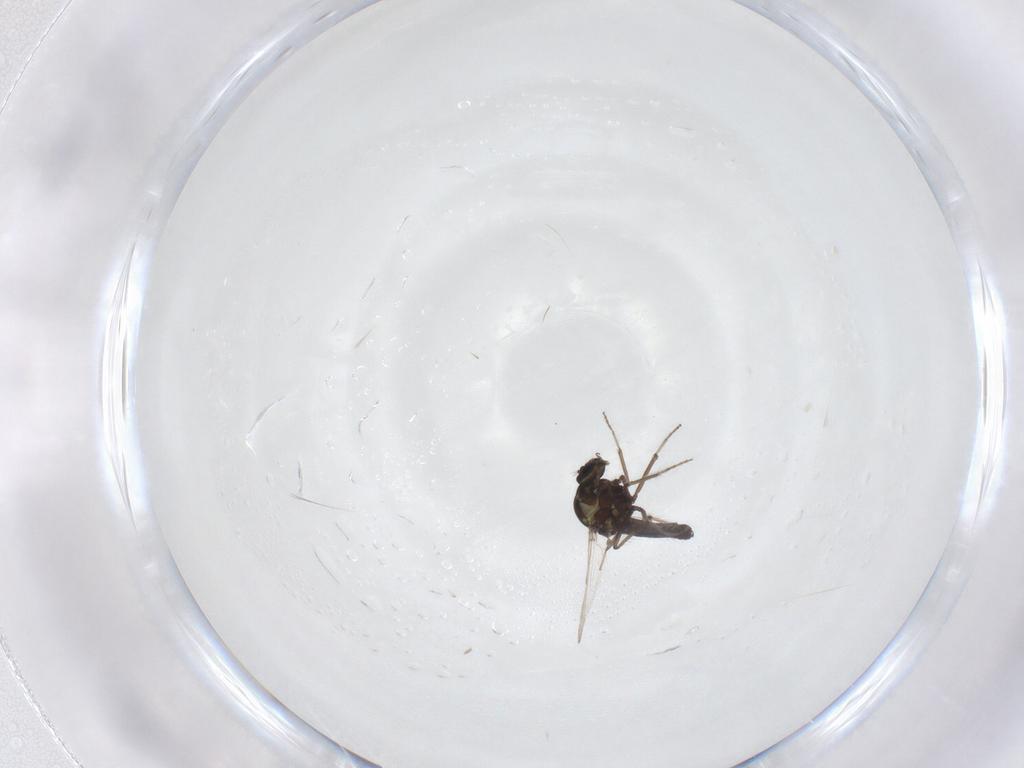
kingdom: Animalia
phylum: Arthropoda
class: Insecta
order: Diptera
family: Ceratopogonidae
